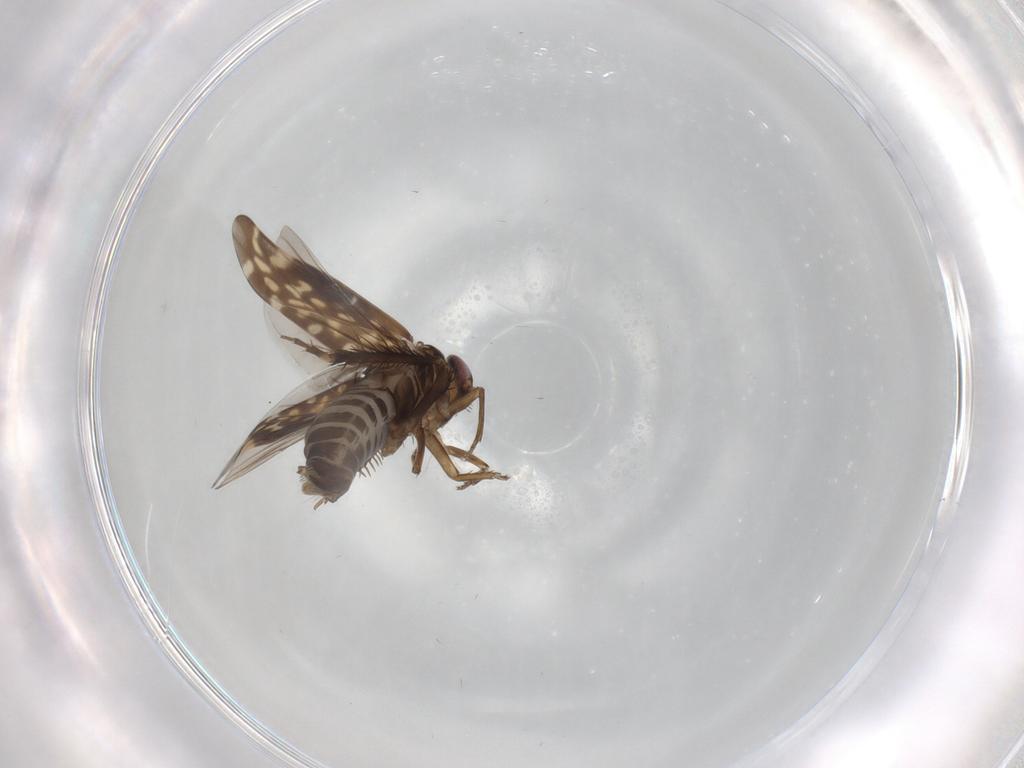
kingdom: Animalia
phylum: Arthropoda
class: Insecta
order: Hemiptera
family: Cicadellidae
